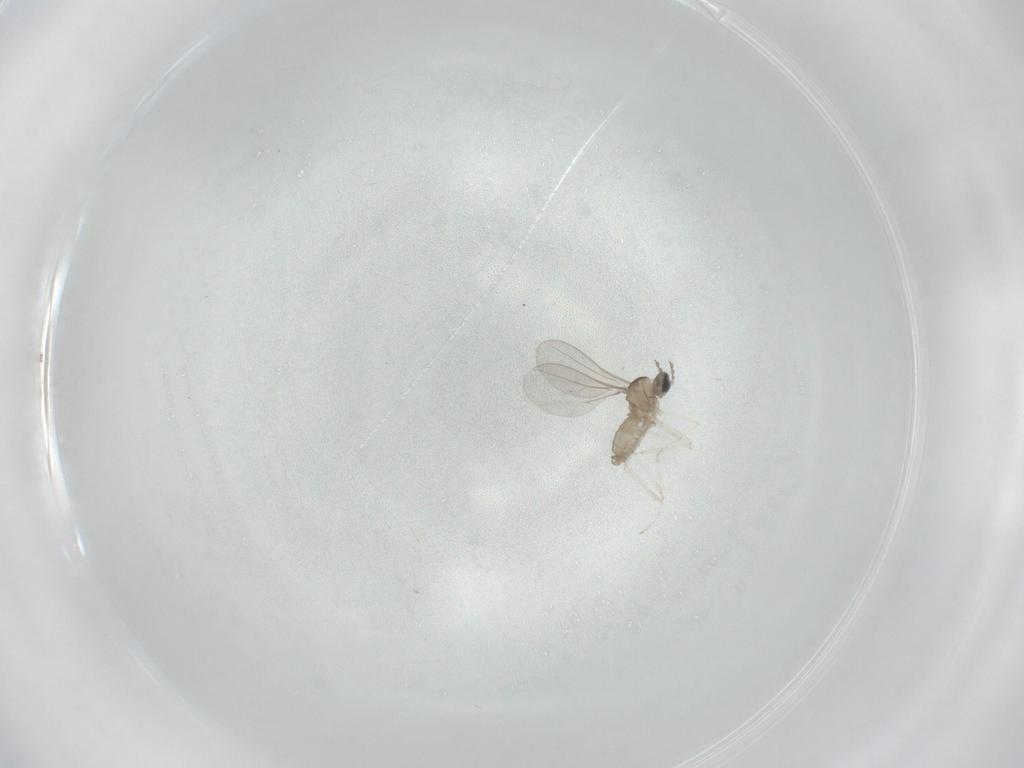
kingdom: Animalia
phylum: Arthropoda
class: Insecta
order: Diptera
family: Cecidomyiidae
